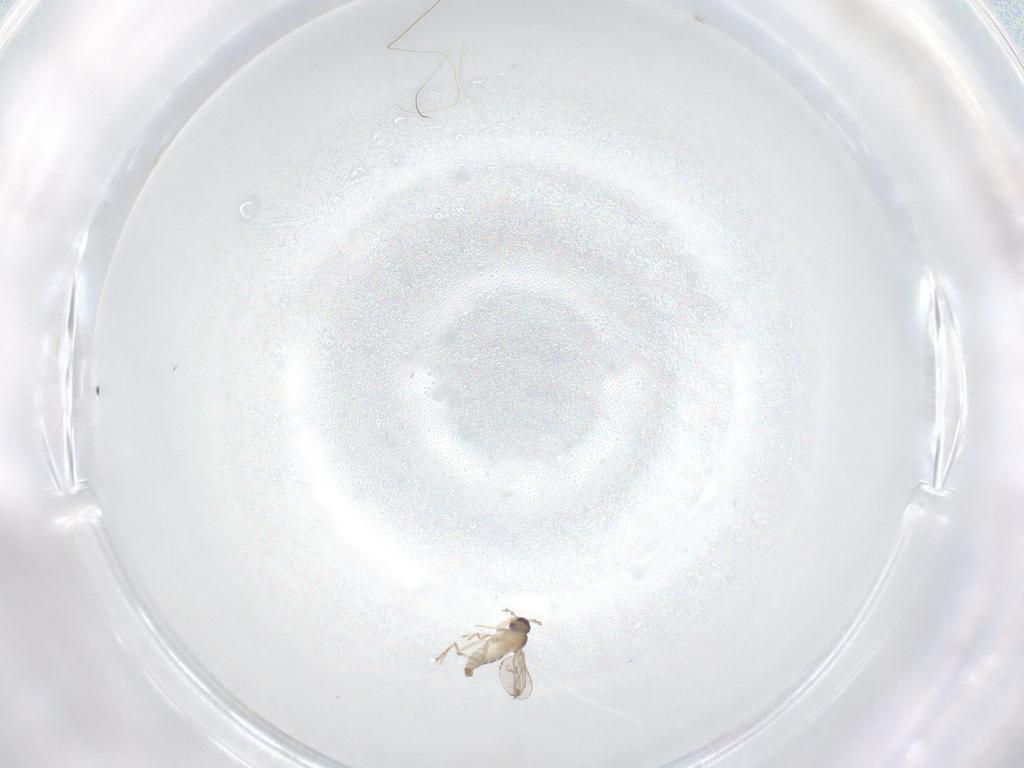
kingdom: Animalia
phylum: Arthropoda
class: Insecta
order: Diptera
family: Cecidomyiidae
